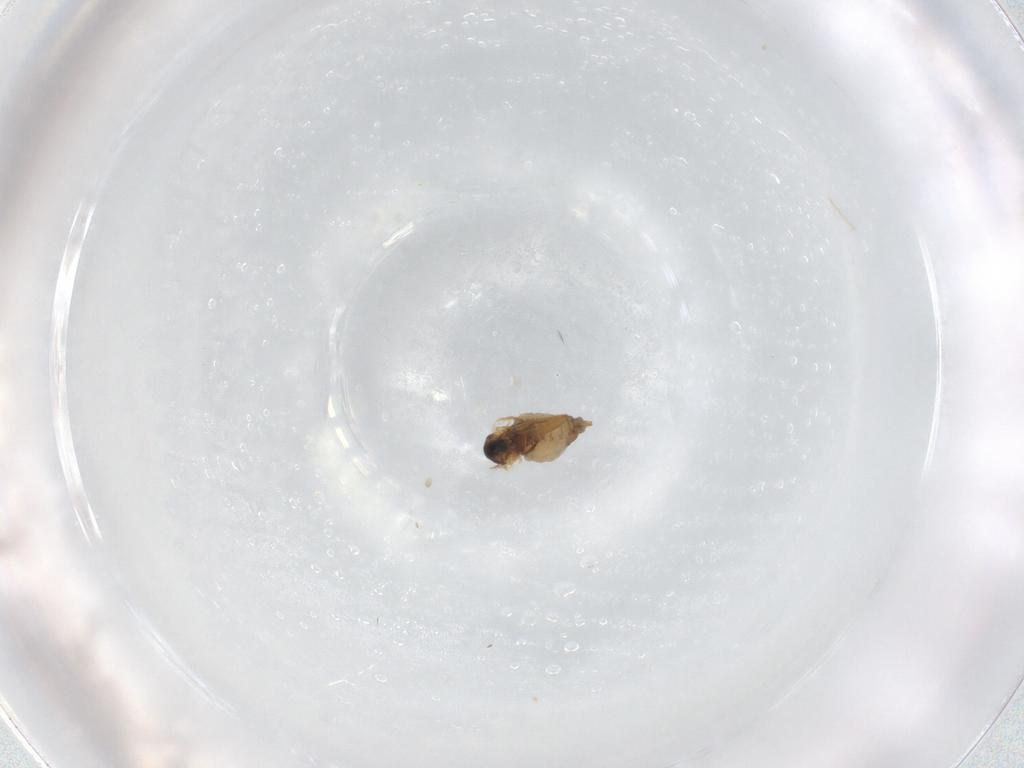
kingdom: Animalia
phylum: Arthropoda
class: Insecta
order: Diptera
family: Cecidomyiidae
